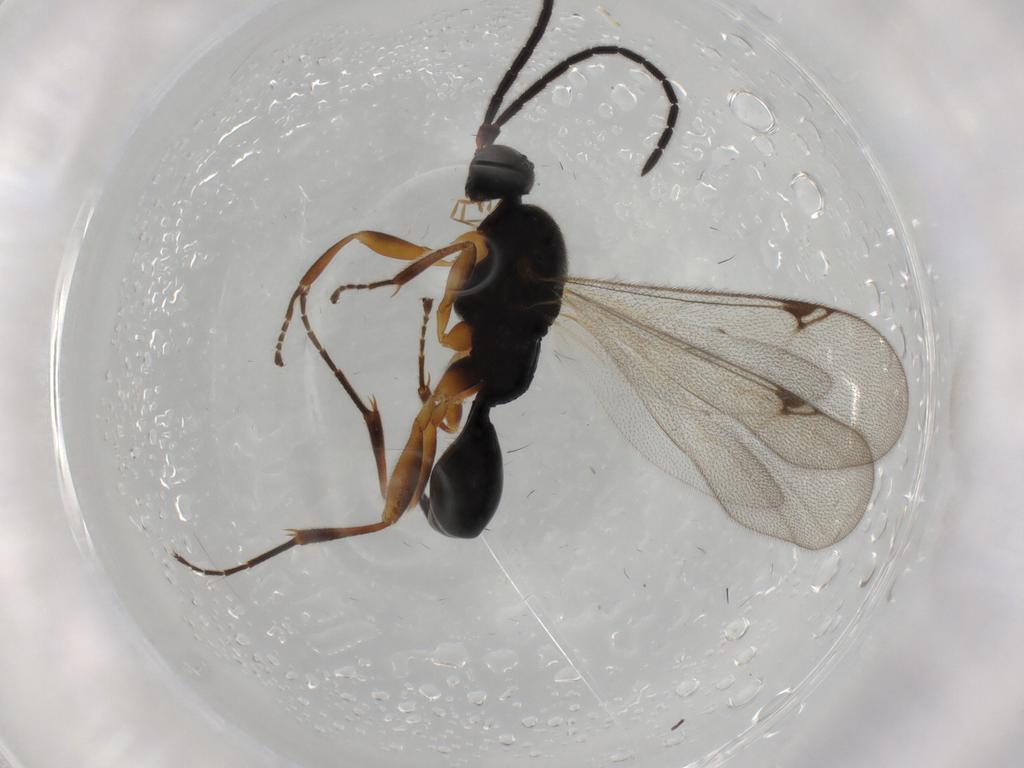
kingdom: Animalia
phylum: Arthropoda
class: Insecta
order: Hymenoptera
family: Proctotrupidae
